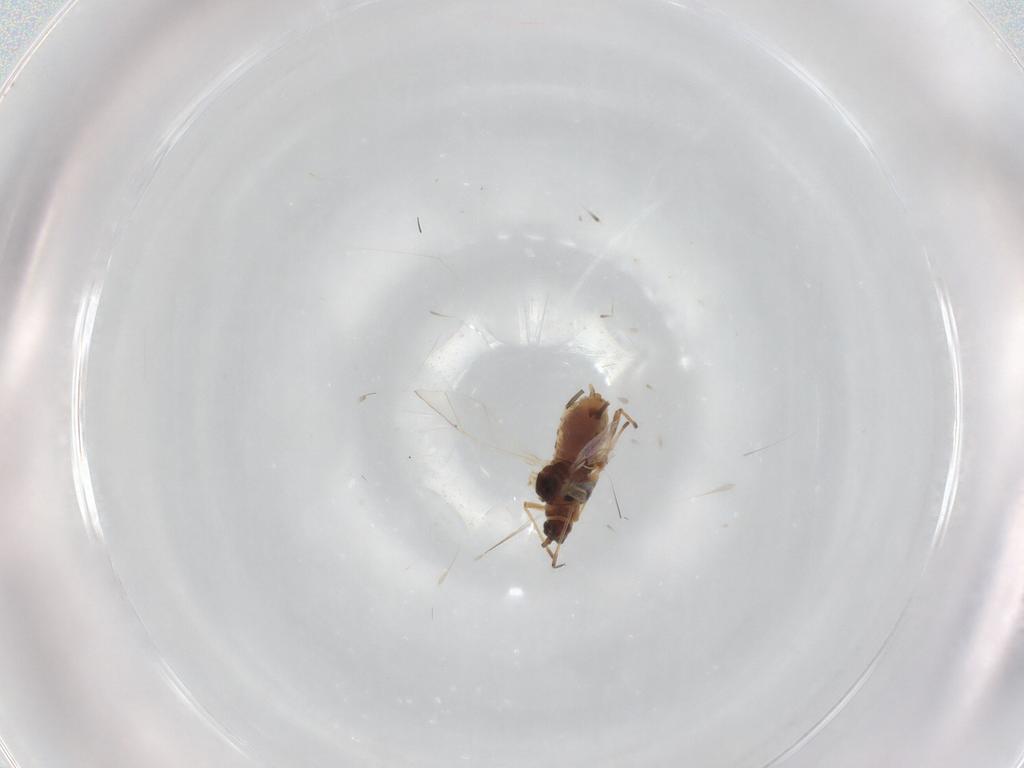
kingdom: Animalia
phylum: Arthropoda
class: Insecta
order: Hemiptera
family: Aphididae
